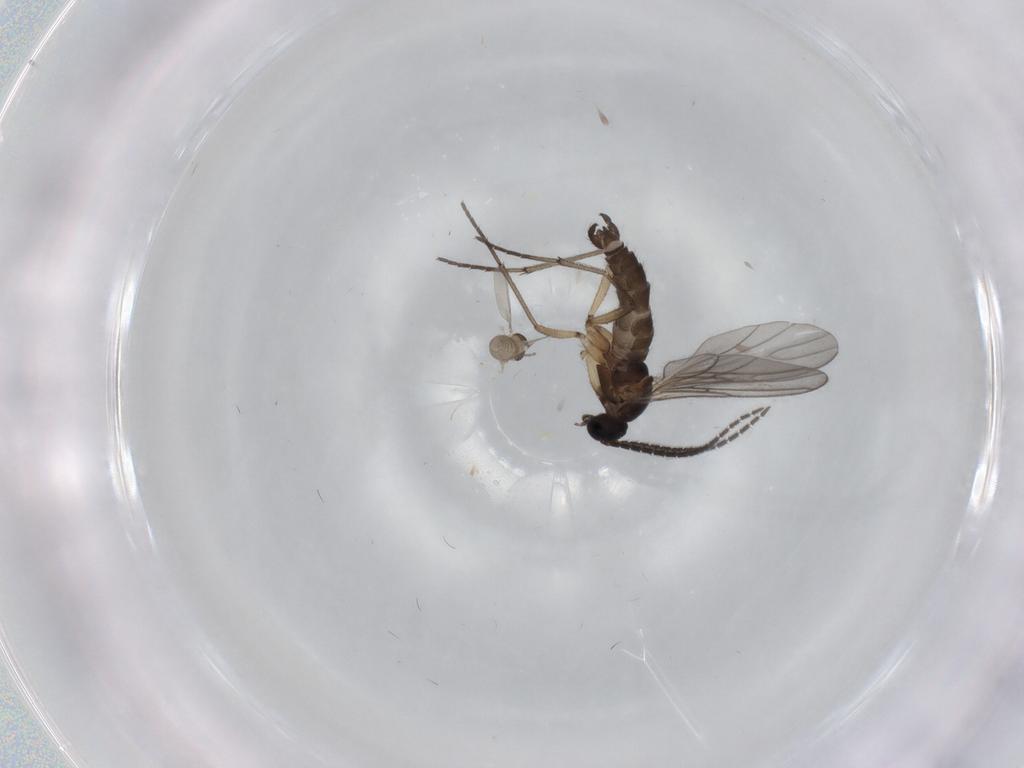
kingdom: Animalia
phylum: Arthropoda
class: Insecta
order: Diptera
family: Sciaridae
